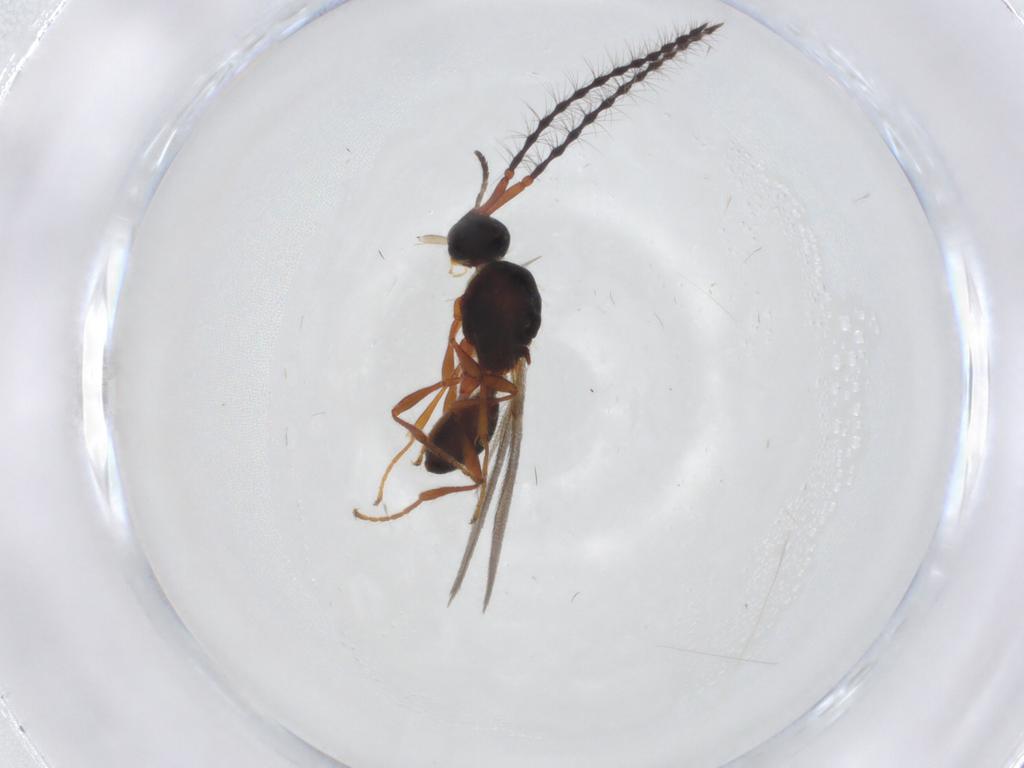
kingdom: Animalia
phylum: Arthropoda
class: Insecta
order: Hymenoptera
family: Diapriidae
